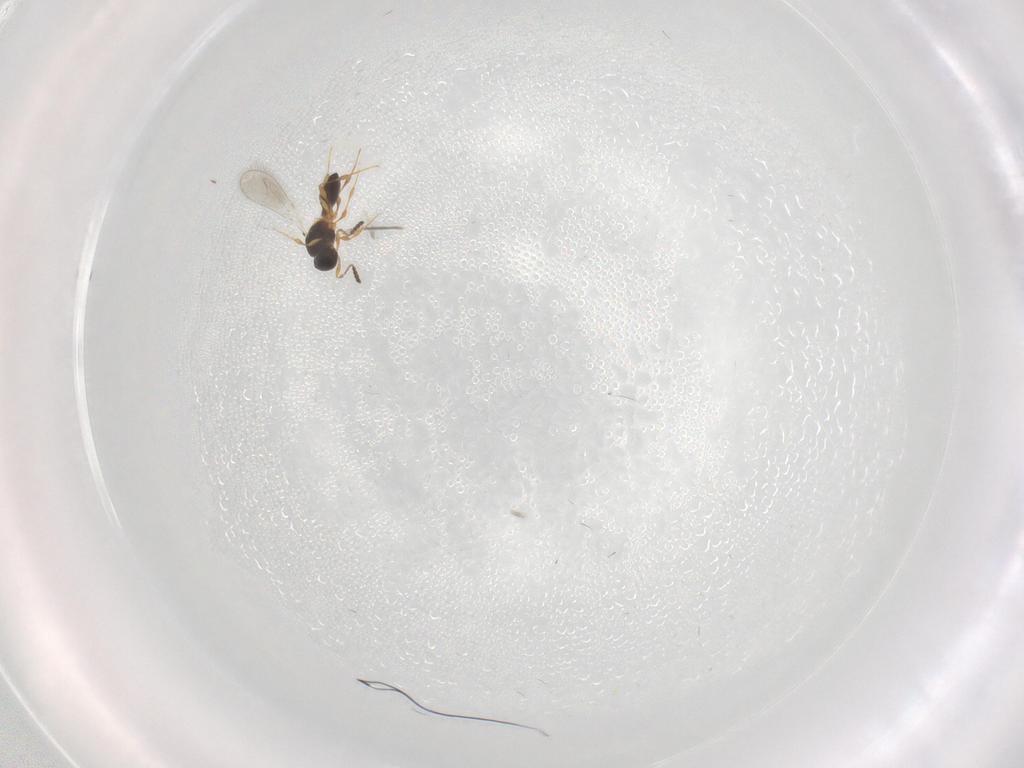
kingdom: Animalia
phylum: Arthropoda
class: Insecta
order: Hymenoptera
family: Platygastridae
